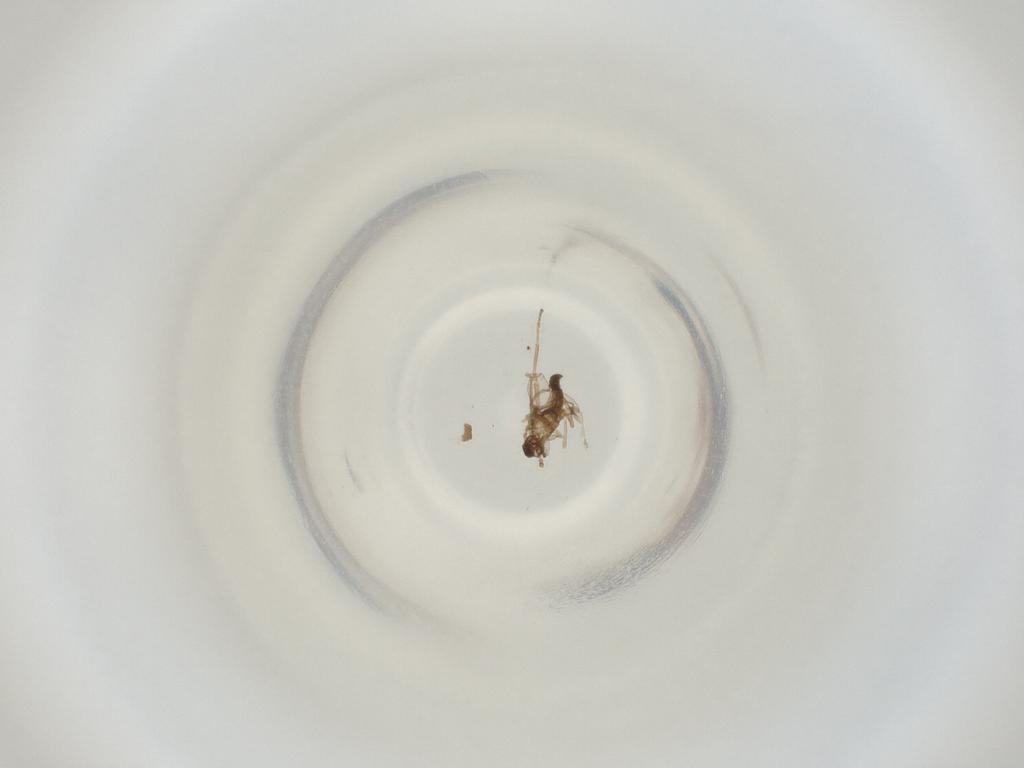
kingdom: Animalia
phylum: Arthropoda
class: Insecta
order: Diptera
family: Cecidomyiidae
